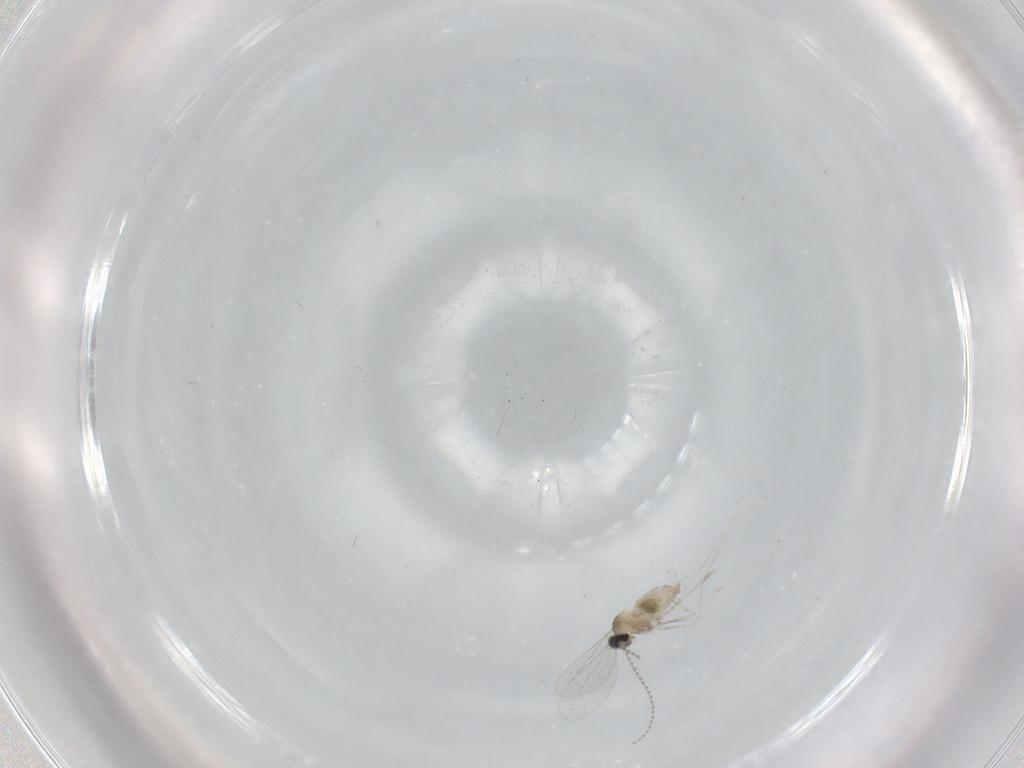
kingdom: Animalia
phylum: Arthropoda
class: Insecta
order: Diptera
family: Cecidomyiidae
